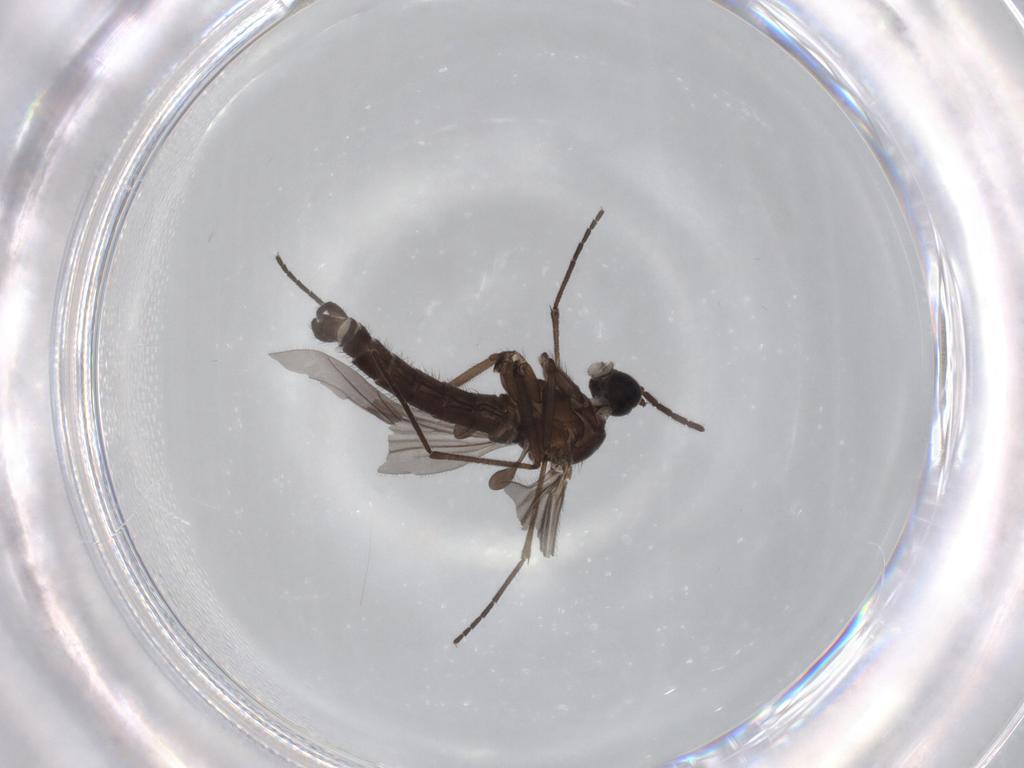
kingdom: Animalia
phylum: Arthropoda
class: Insecta
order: Diptera
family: Sciaridae
